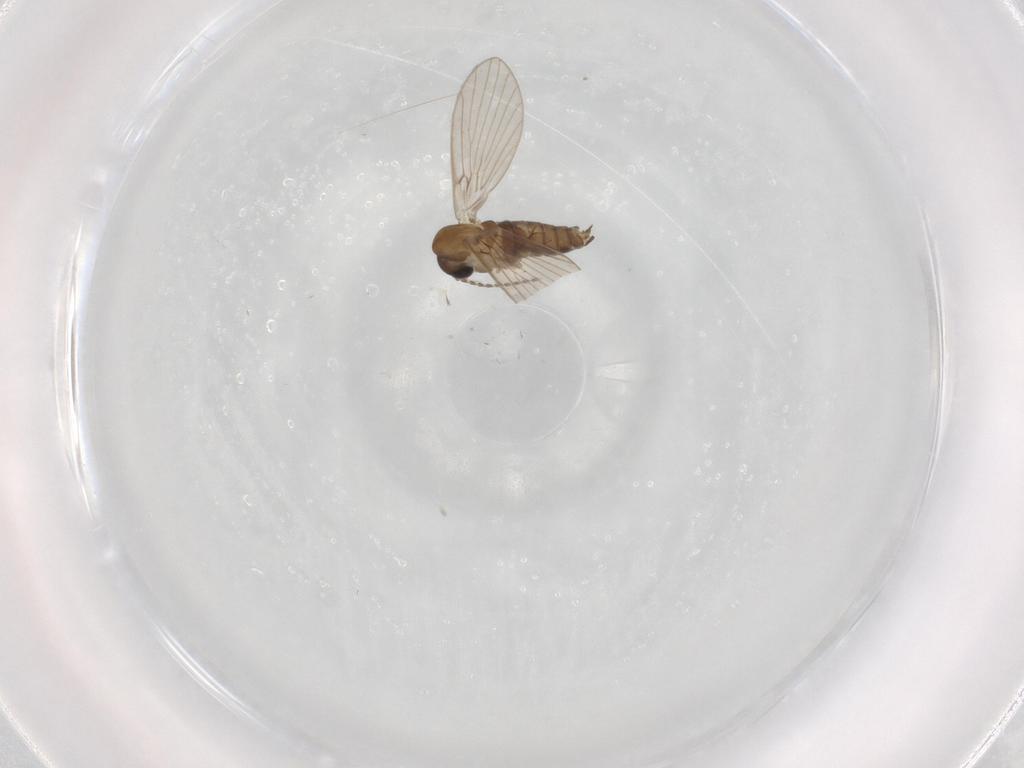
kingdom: Animalia
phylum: Arthropoda
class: Insecta
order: Diptera
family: Psychodidae
